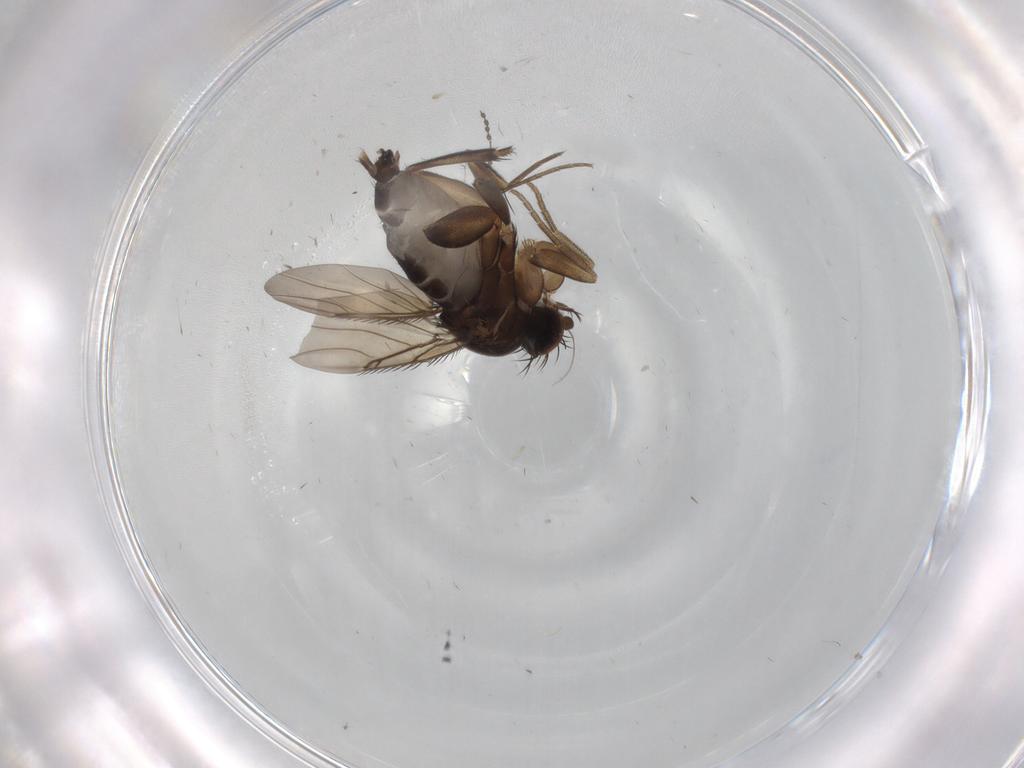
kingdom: Animalia
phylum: Arthropoda
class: Insecta
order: Diptera
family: Phoridae
